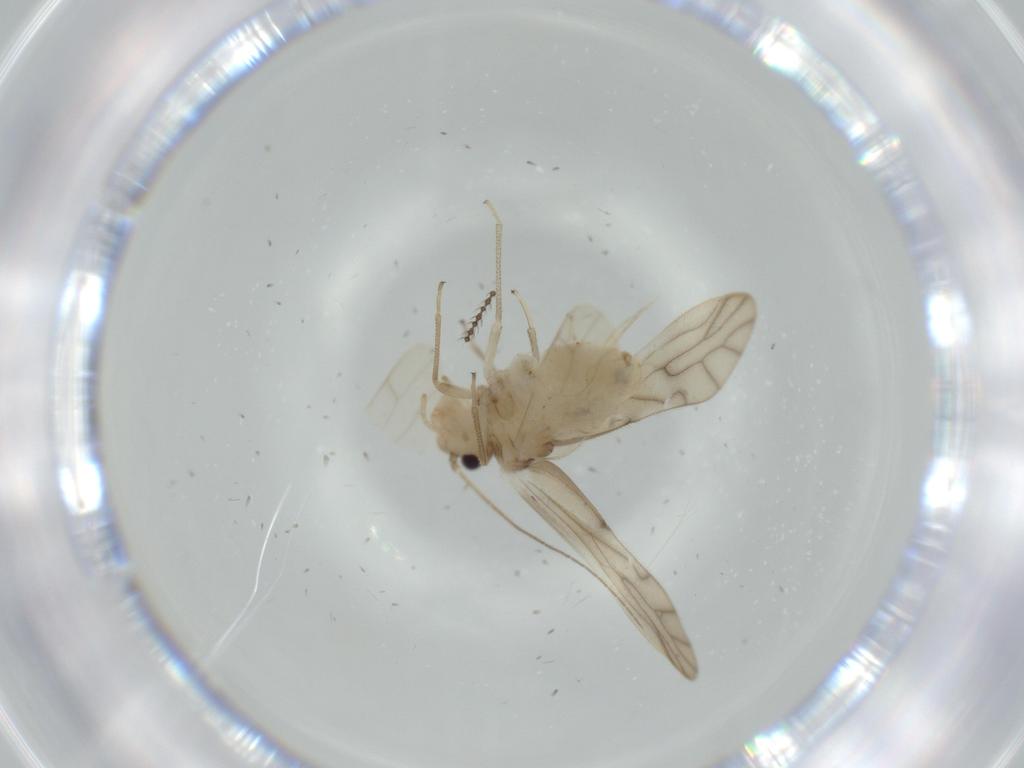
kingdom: Animalia
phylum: Arthropoda
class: Insecta
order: Psocodea
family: Caeciliusidae
